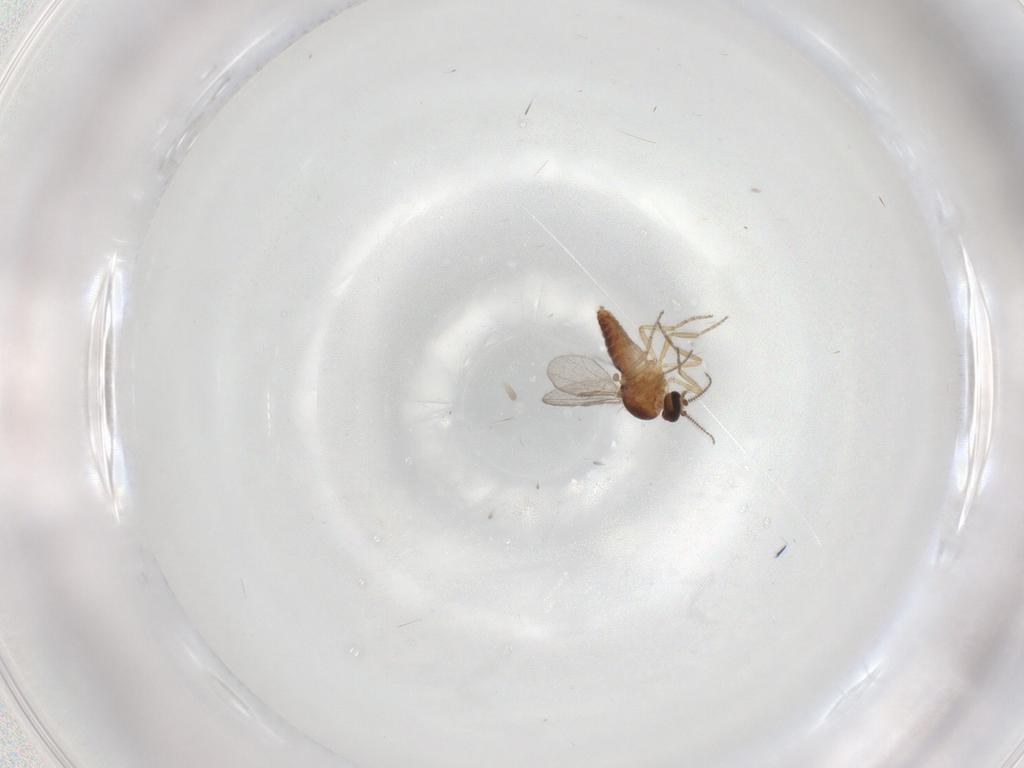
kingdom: Animalia
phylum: Arthropoda
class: Insecta
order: Diptera
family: Ceratopogonidae
